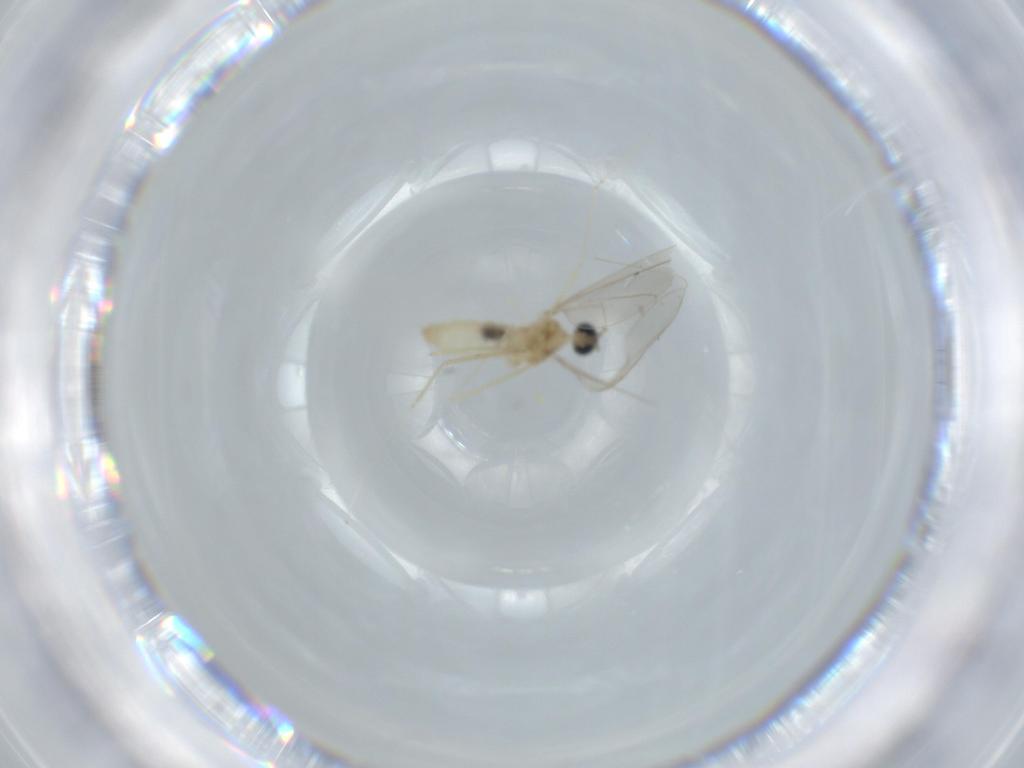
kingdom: Animalia
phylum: Arthropoda
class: Insecta
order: Diptera
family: Cecidomyiidae
